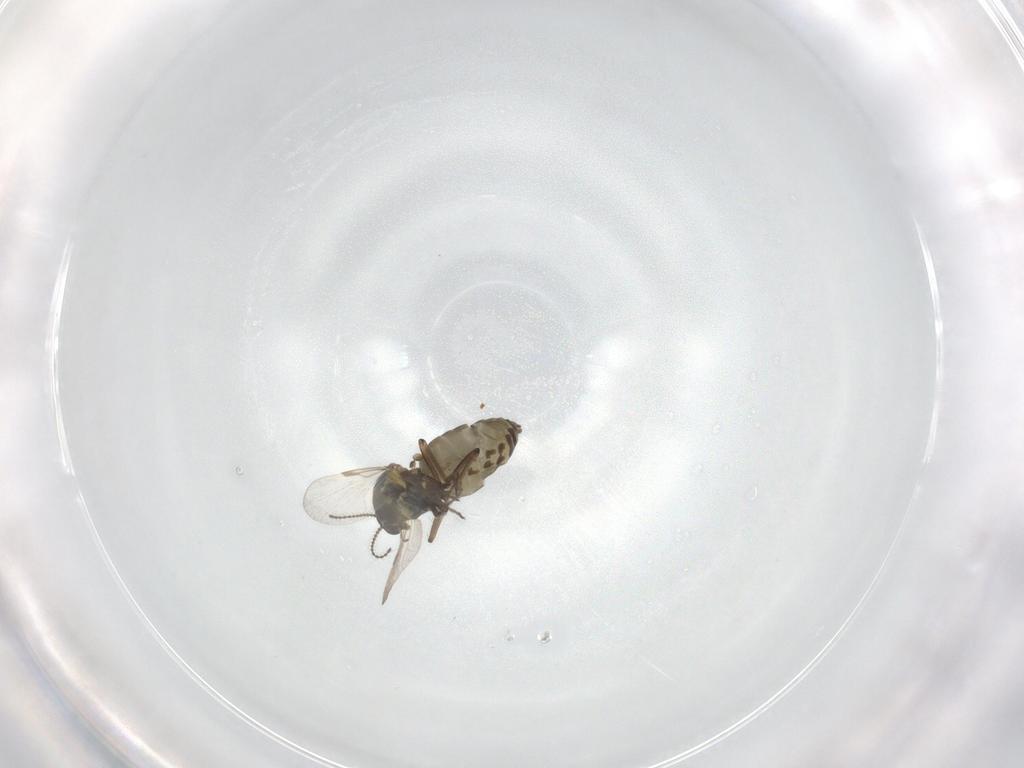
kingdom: Animalia
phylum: Arthropoda
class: Insecta
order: Diptera
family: Ceratopogonidae
